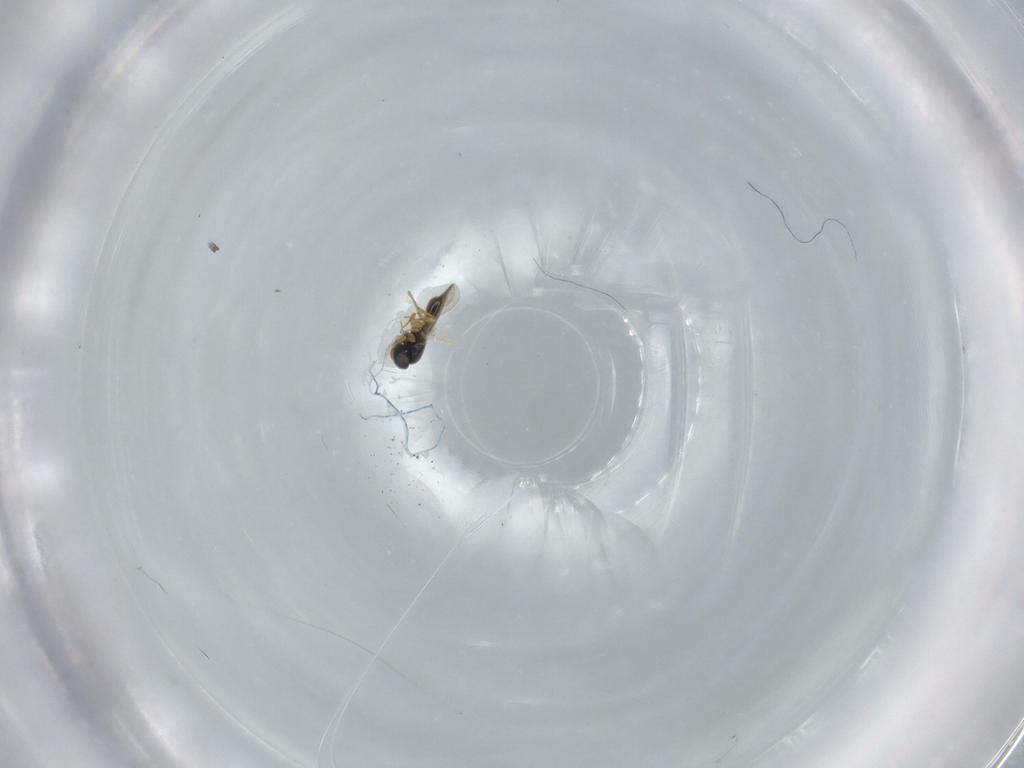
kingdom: Animalia
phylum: Arthropoda
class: Insecta
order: Hymenoptera
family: Platygastridae
